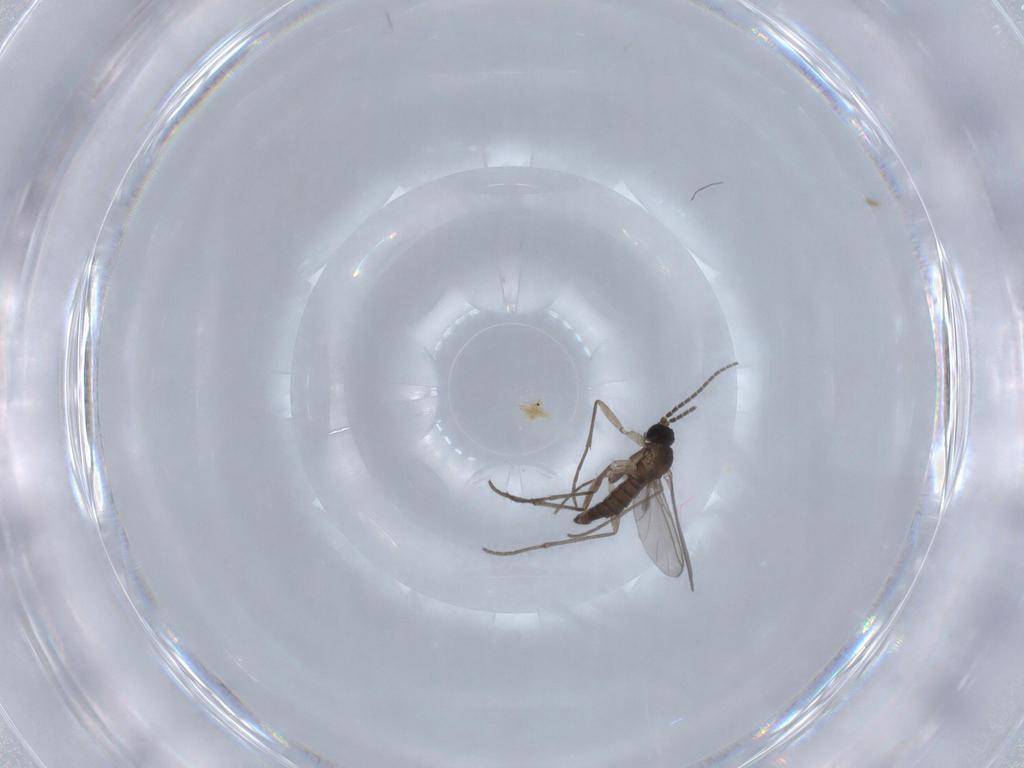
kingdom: Animalia
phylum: Arthropoda
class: Insecta
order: Diptera
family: Sciaridae
